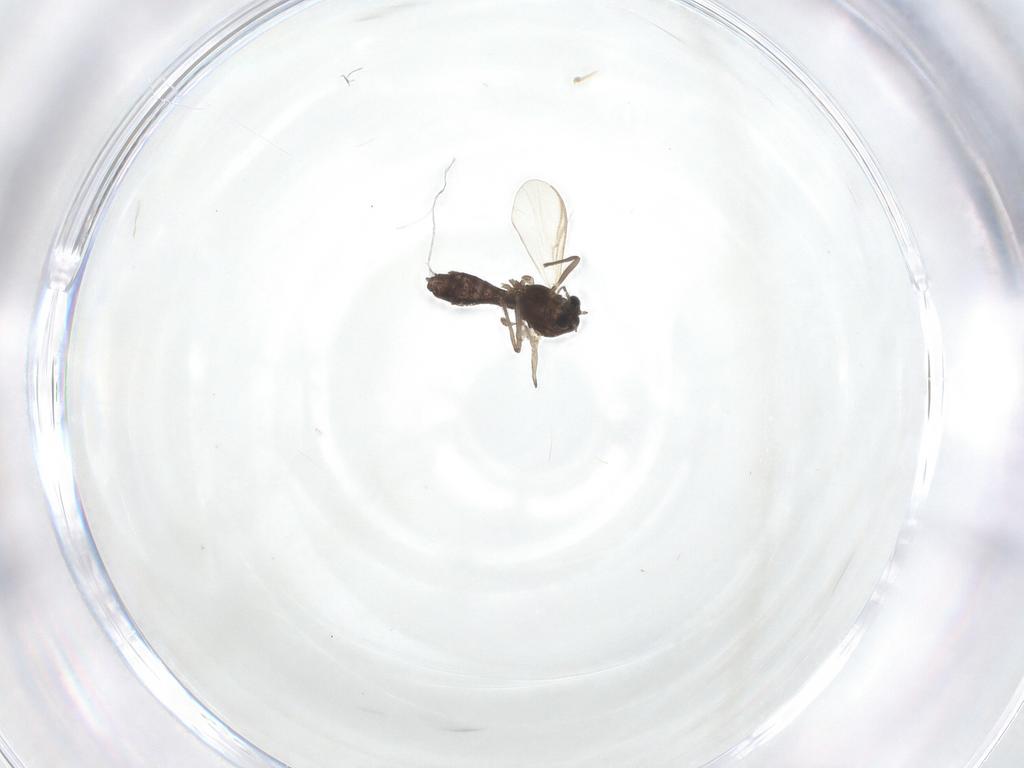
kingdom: Animalia
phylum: Arthropoda
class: Insecta
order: Diptera
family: Chironomidae
